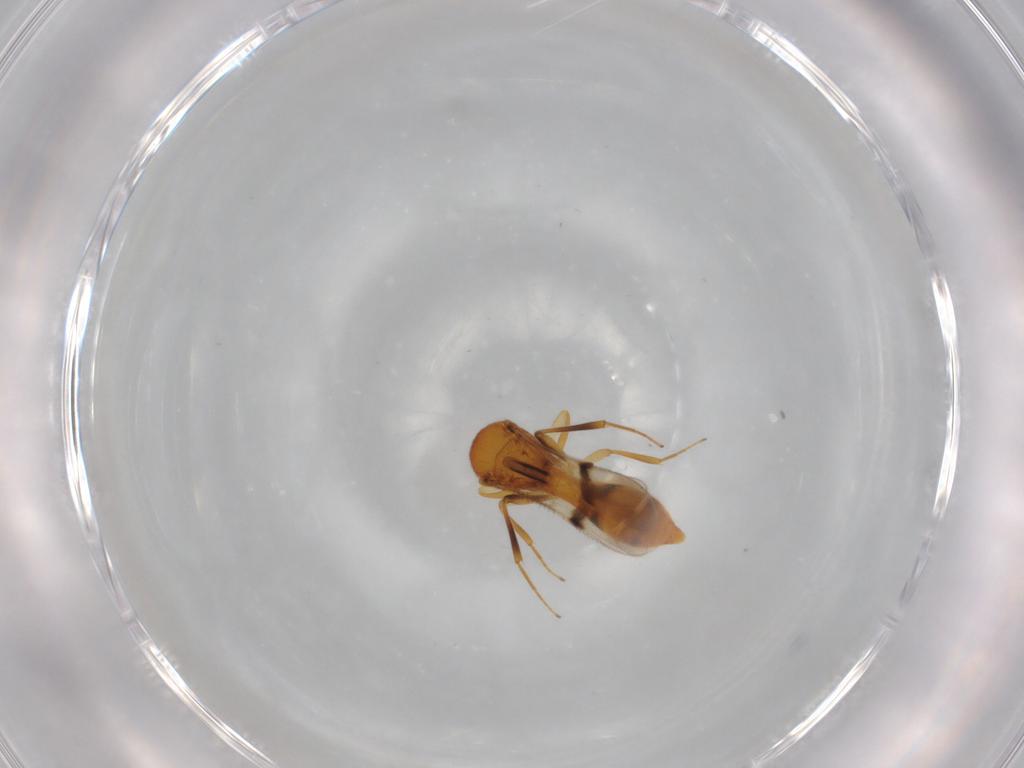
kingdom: Animalia
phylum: Arthropoda
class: Insecta
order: Hymenoptera
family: Scelionidae
